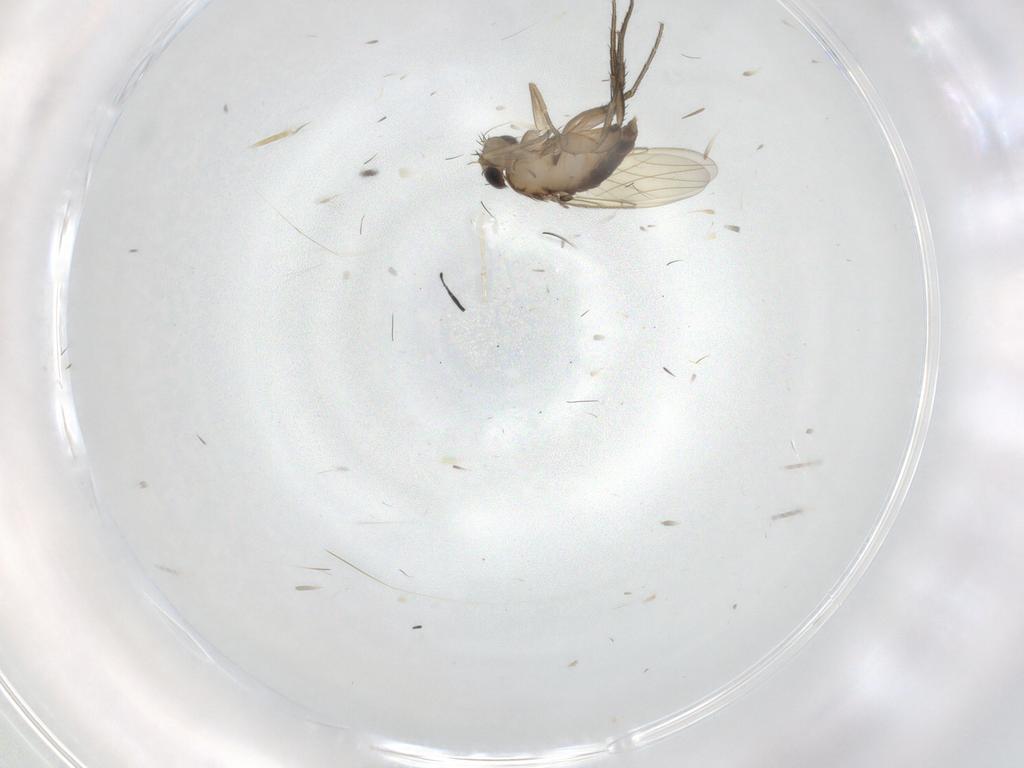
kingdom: Animalia
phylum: Arthropoda
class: Insecta
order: Diptera
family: Phoridae
